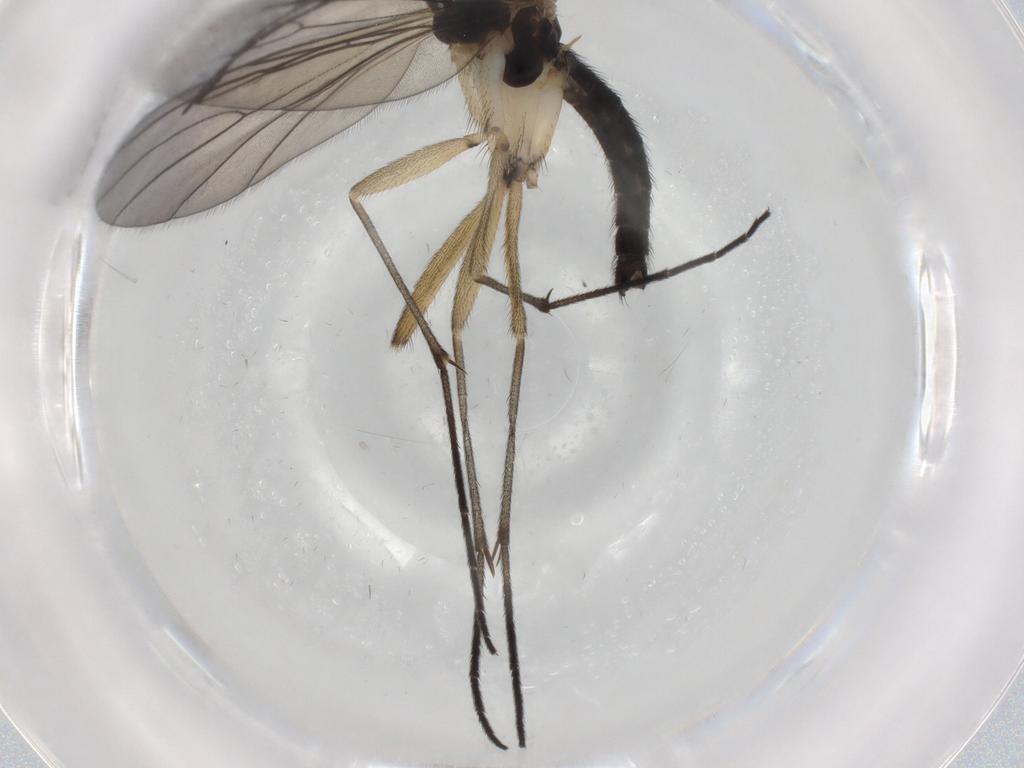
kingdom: Animalia
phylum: Arthropoda
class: Insecta
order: Diptera
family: Sciaridae
